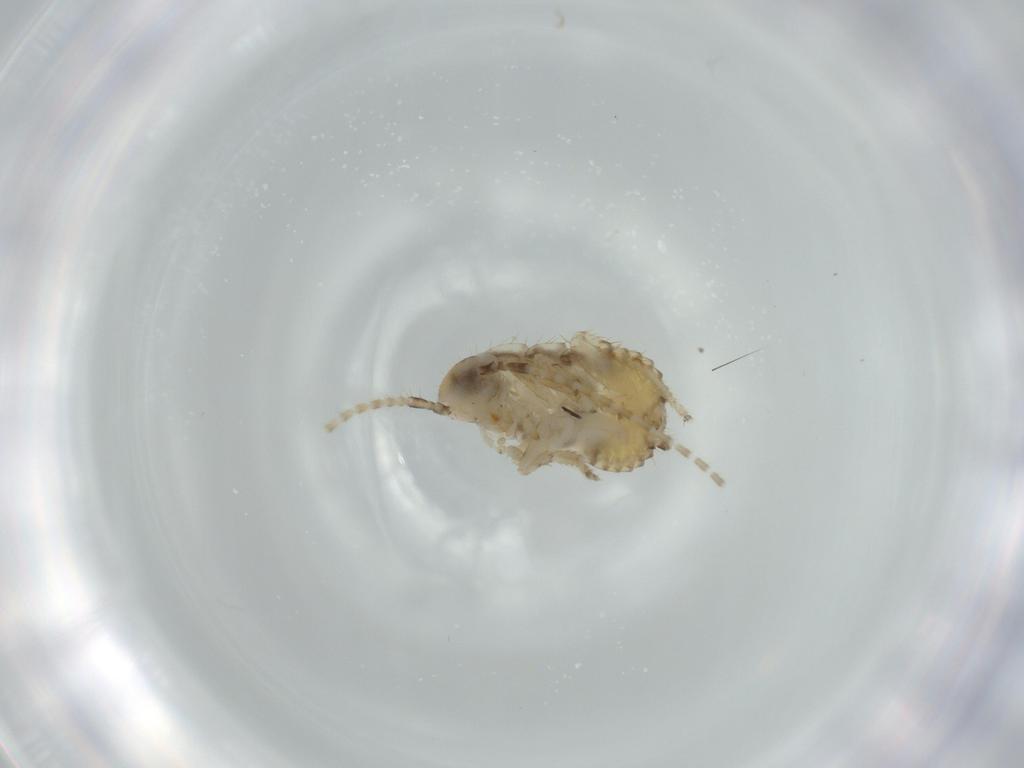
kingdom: Animalia
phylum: Arthropoda
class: Insecta
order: Blattodea
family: Ectobiidae
